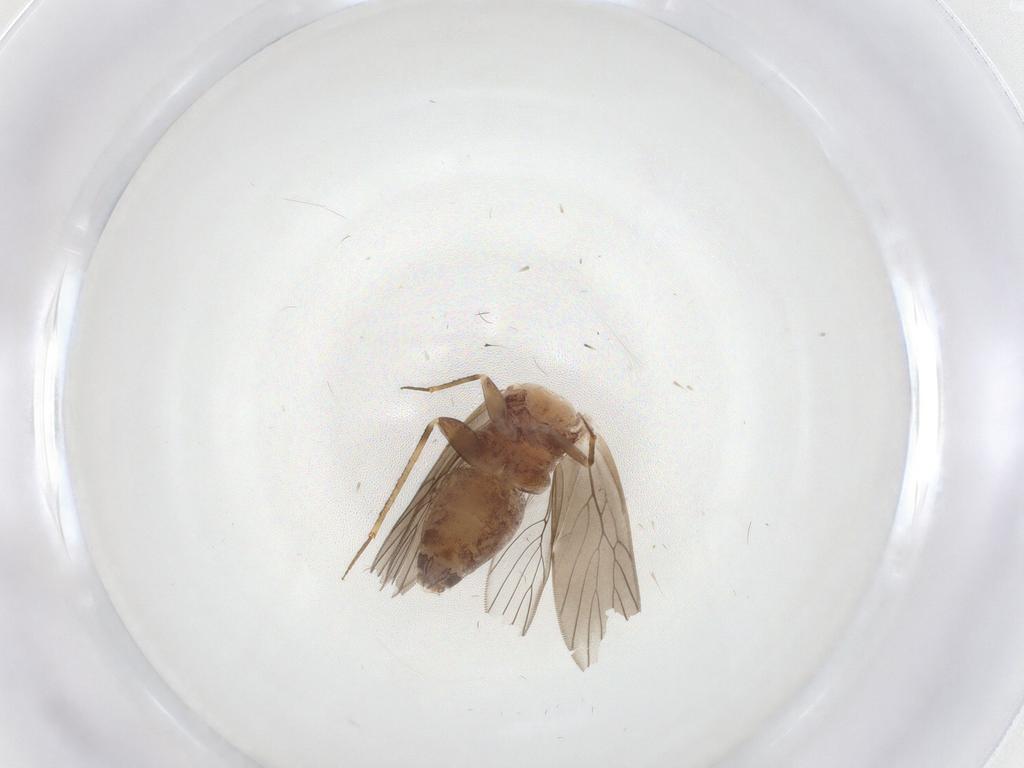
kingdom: Animalia
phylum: Arthropoda
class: Insecta
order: Psocodea
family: Lepidopsocidae
